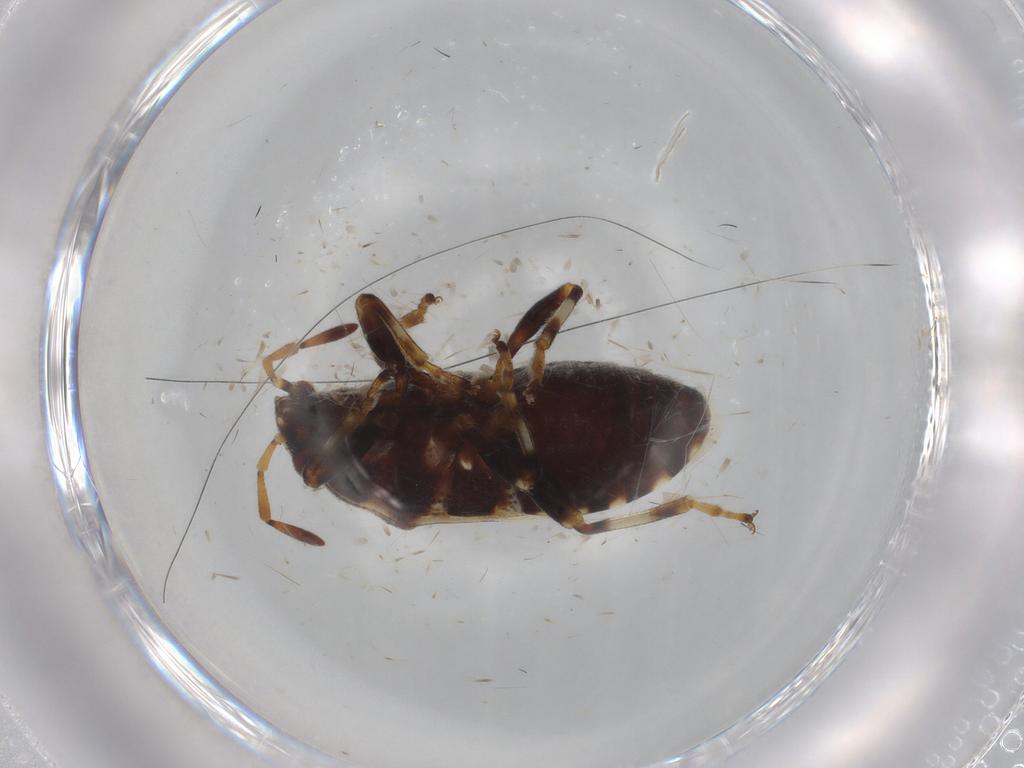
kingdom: Animalia
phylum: Arthropoda
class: Insecta
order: Hemiptera
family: Lygaeidae
